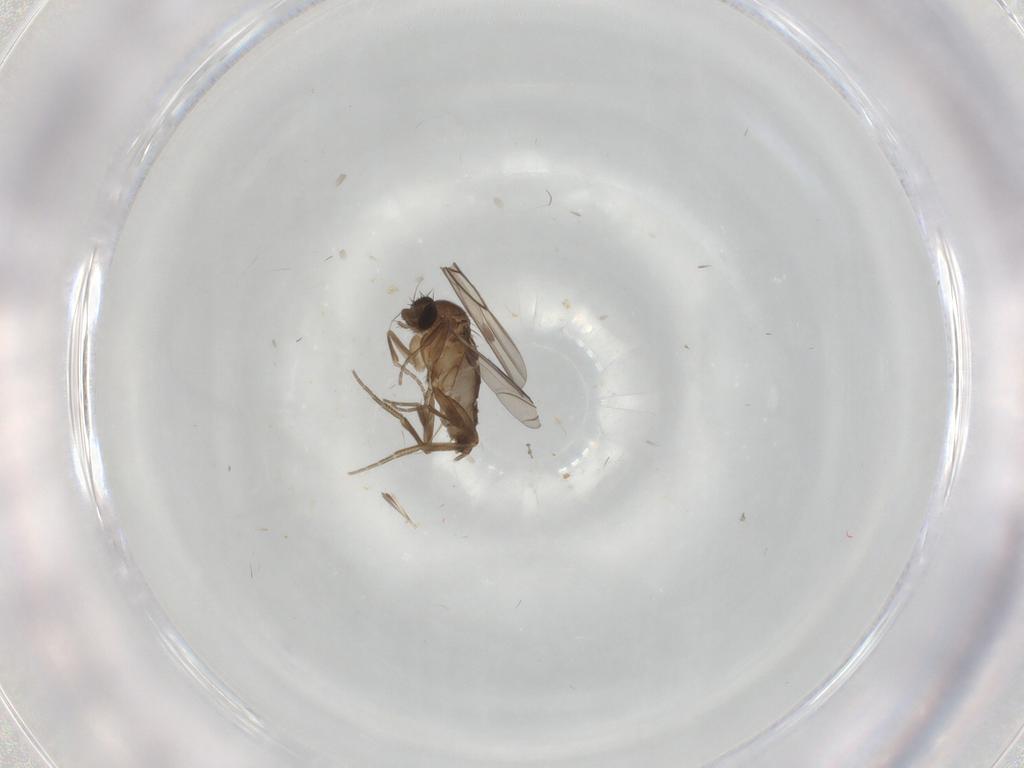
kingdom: Animalia
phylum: Arthropoda
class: Insecta
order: Diptera
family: Phoridae
